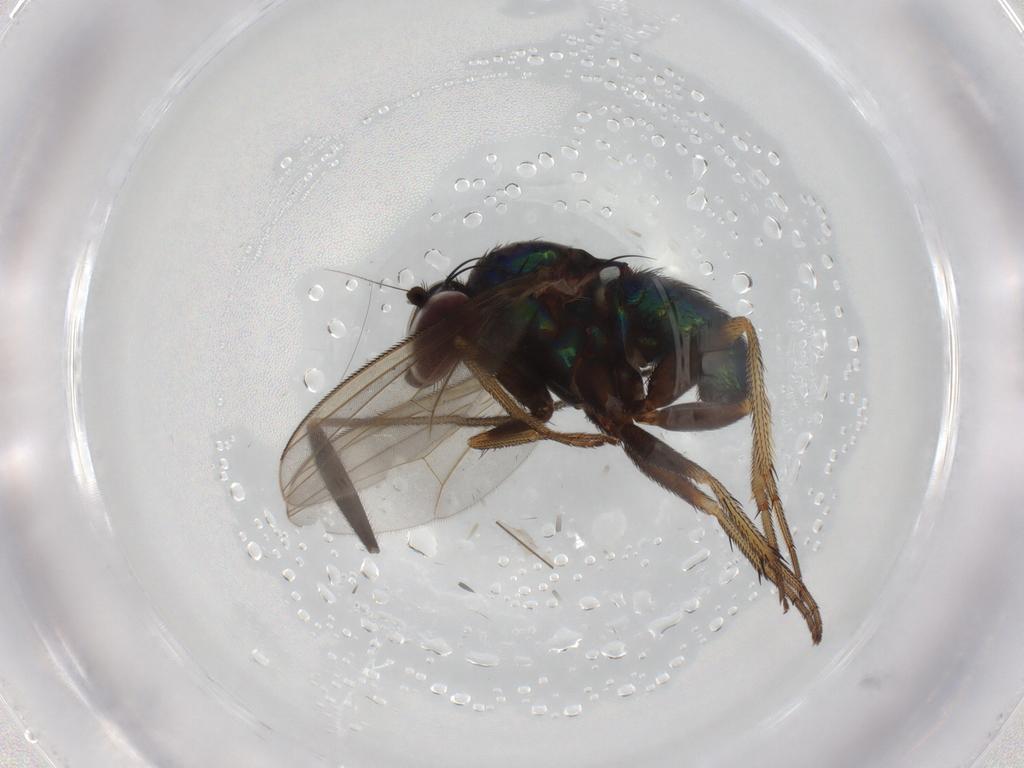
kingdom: Animalia
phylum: Arthropoda
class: Insecta
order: Diptera
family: Dolichopodidae
